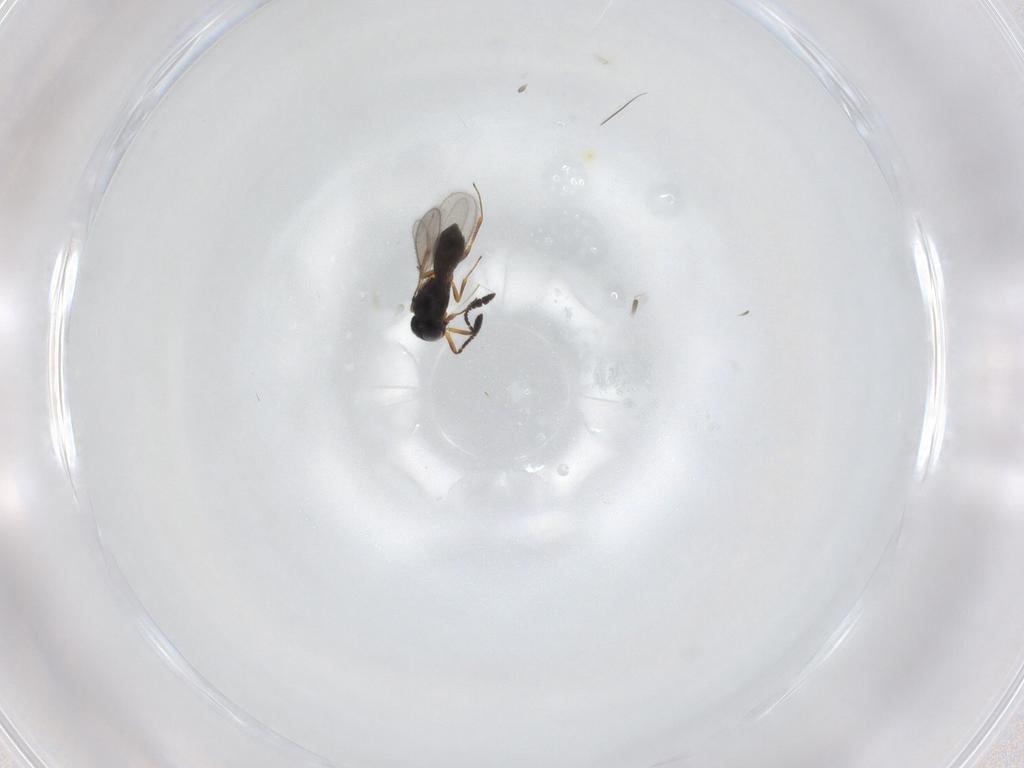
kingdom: Animalia
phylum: Arthropoda
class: Insecta
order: Hymenoptera
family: Scelionidae
